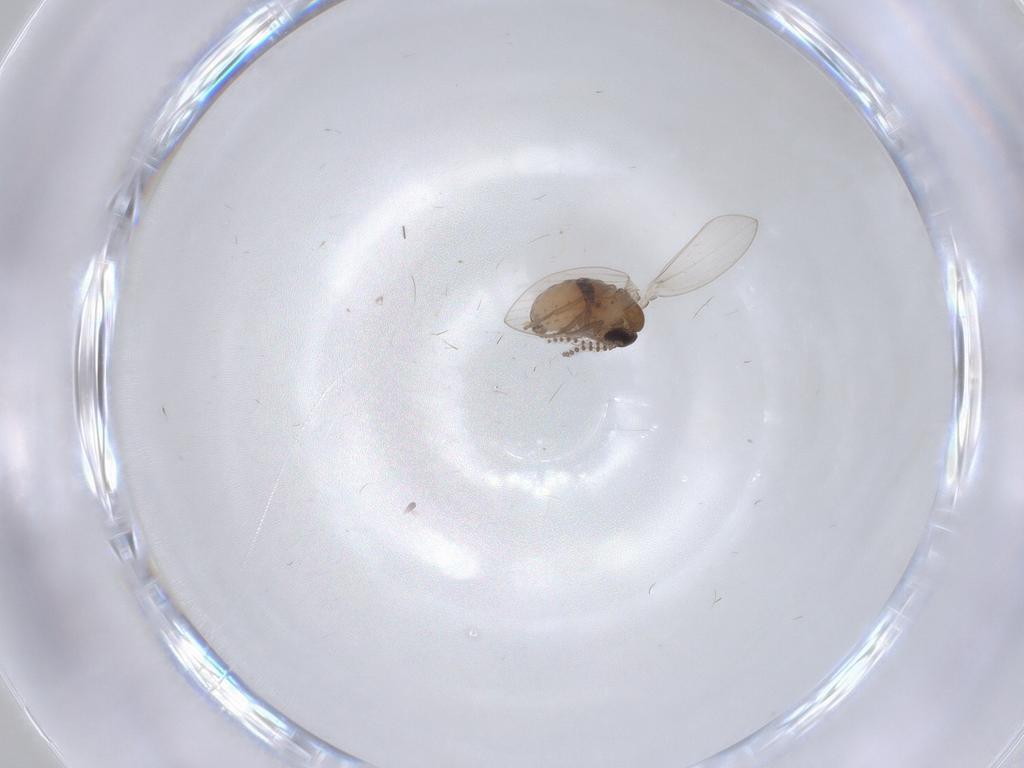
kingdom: Animalia
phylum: Arthropoda
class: Insecta
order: Diptera
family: Psychodidae
